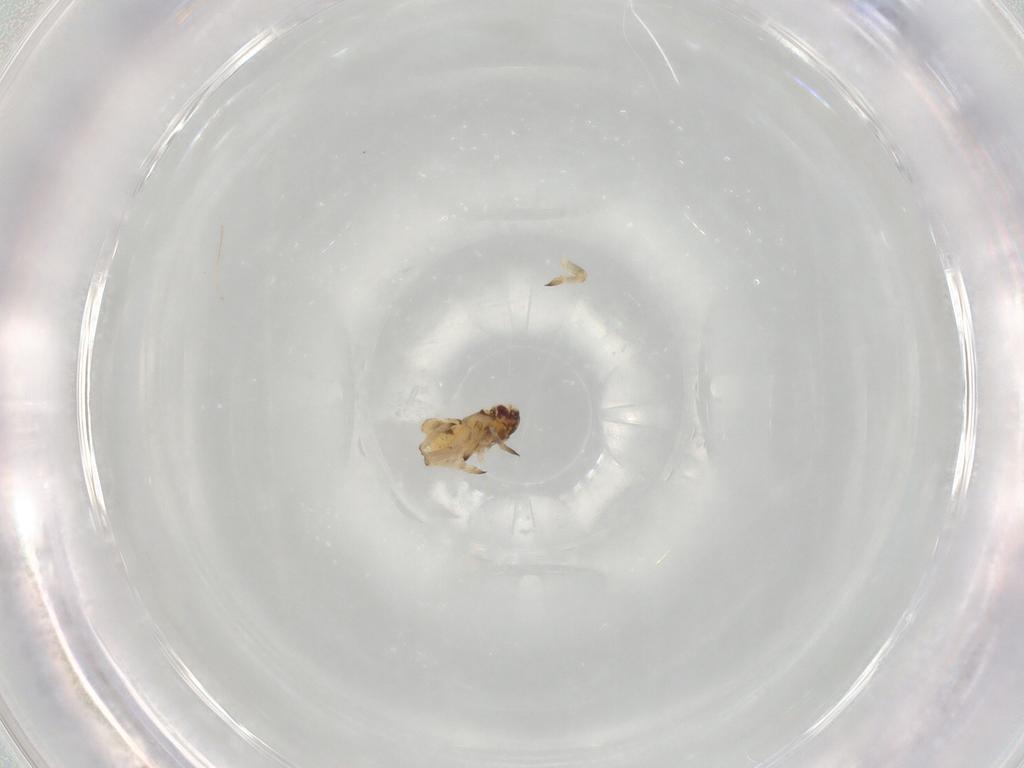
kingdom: Animalia
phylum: Arthropoda
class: Insecta
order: Hemiptera
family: Delphacidae
